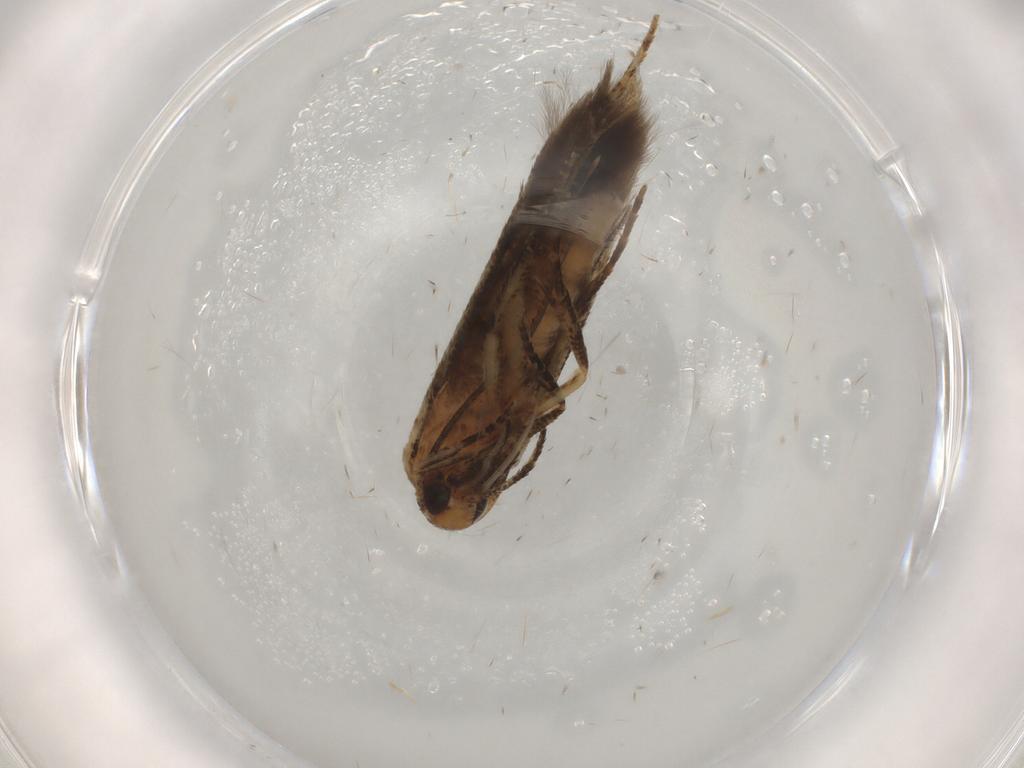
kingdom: Animalia
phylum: Arthropoda
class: Insecta
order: Lepidoptera
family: Cosmopterigidae
